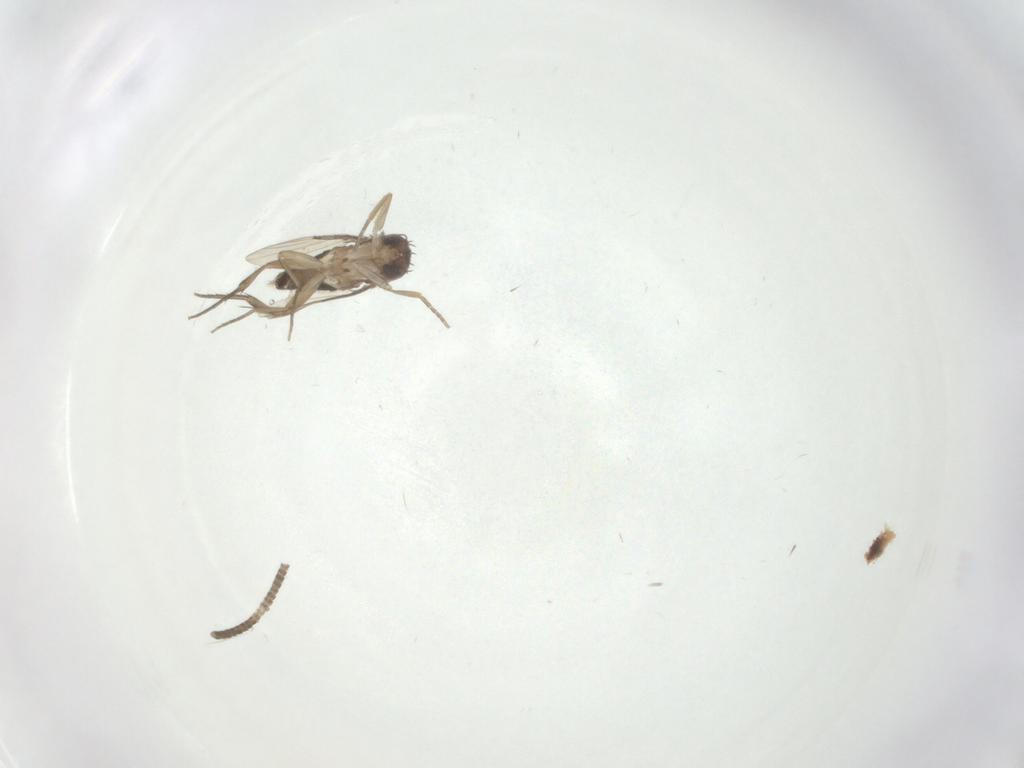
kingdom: Animalia
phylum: Arthropoda
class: Insecta
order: Diptera
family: Phoridae
